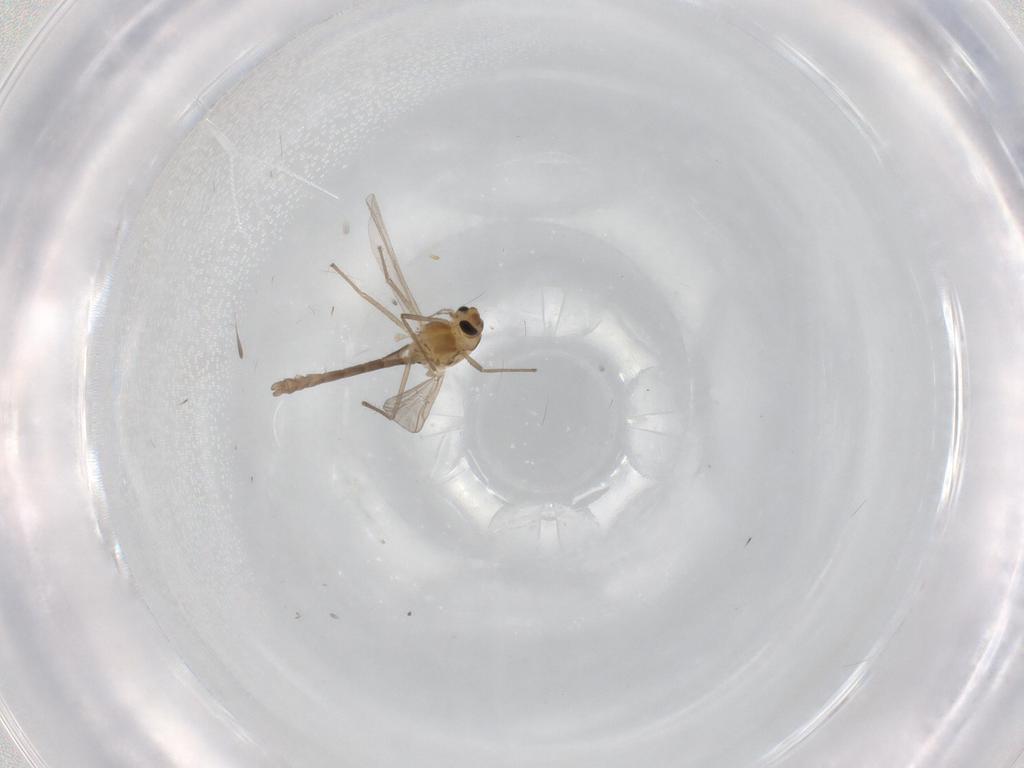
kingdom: Animalia
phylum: Arthropoda
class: Insecta
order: Diptera
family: Chironomidae
